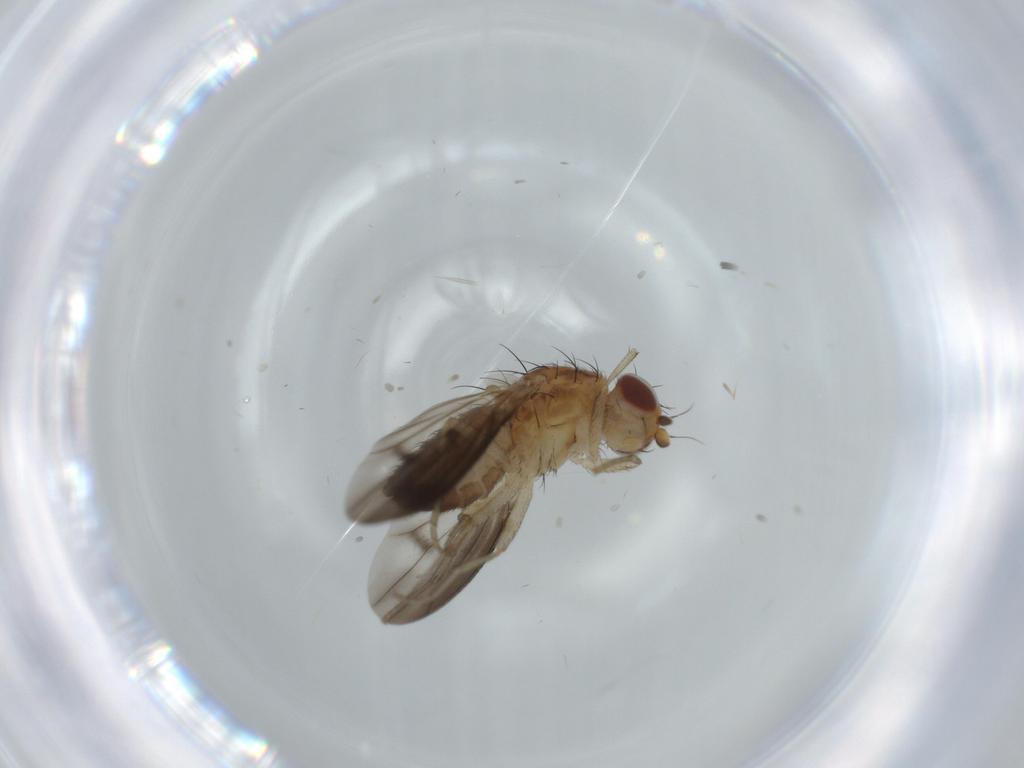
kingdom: Animalia
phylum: Arthropoda
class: Insecta
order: Diptera
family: Heleomyzidae
